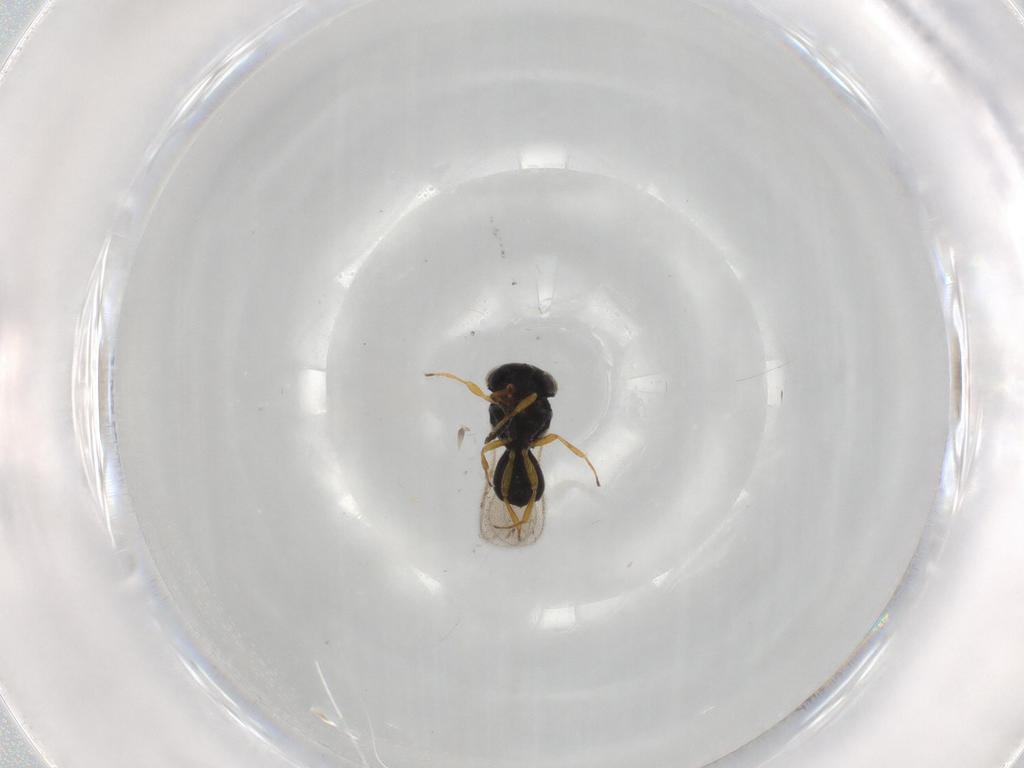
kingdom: Animalia
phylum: Arthropoda
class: Insecta
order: Hymenoptera
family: Scelionidae
